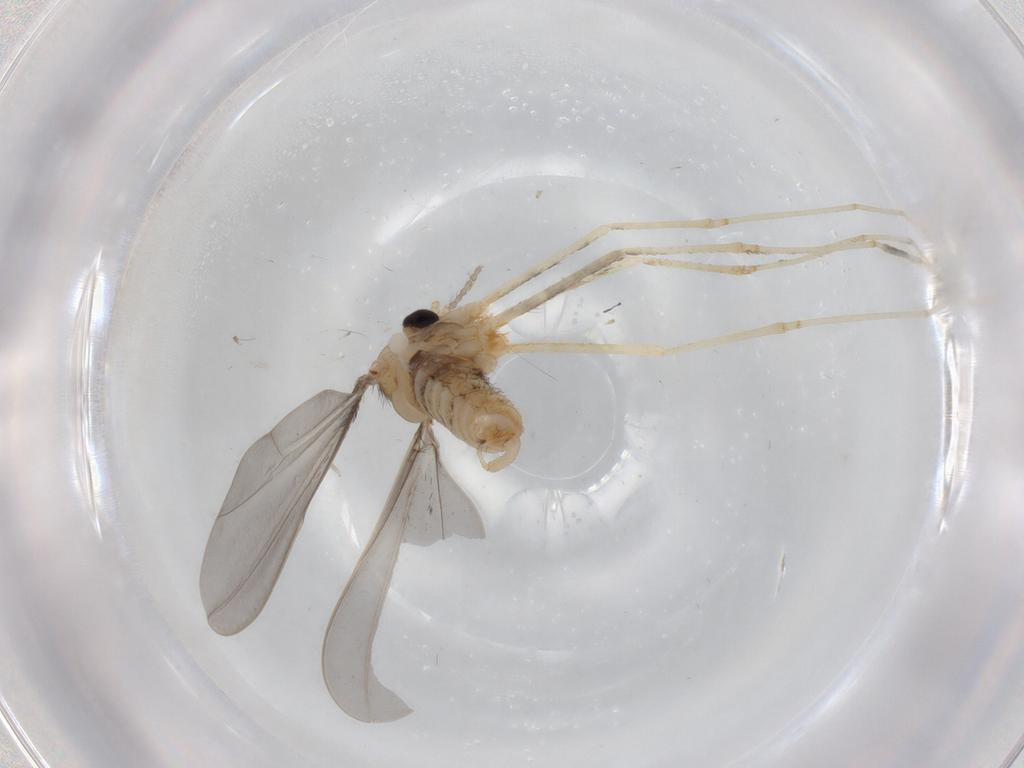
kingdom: Animalia
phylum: Arthropoda
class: Insecta
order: Diptera
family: Cecidomyiidae
